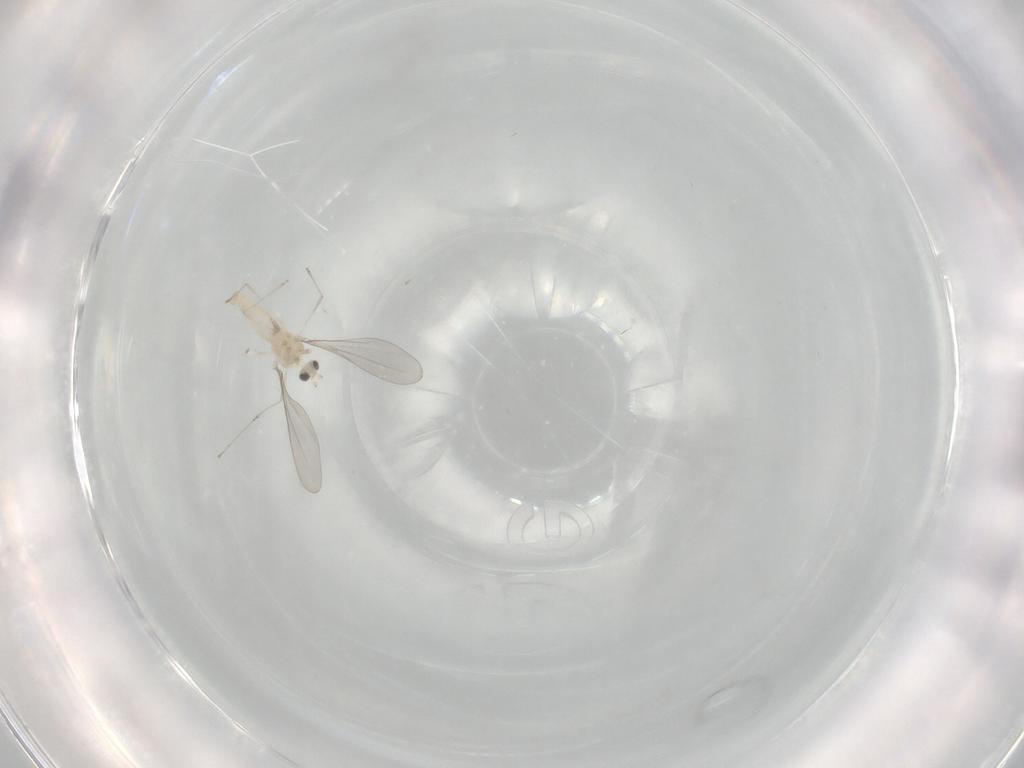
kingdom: Animalia
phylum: Arthropoda
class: Insecta
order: Diptera
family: Cecidomyiidae
